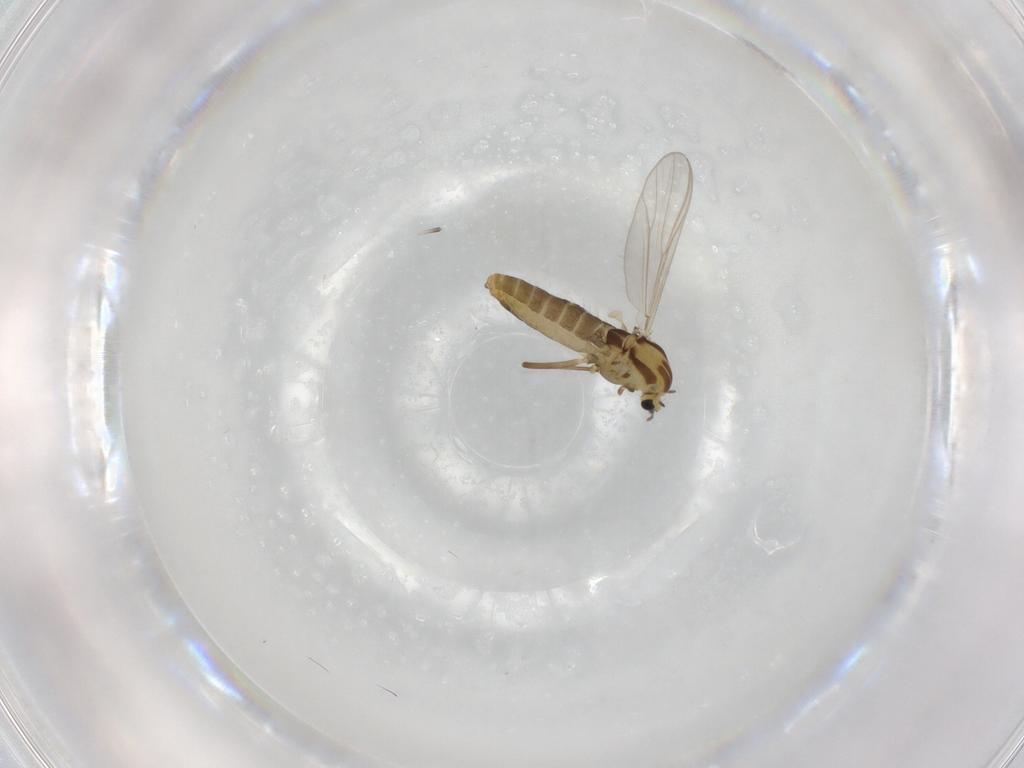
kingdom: Animalia
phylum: Arthropoda
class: Insecta
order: Diptera
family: Chironomidae
